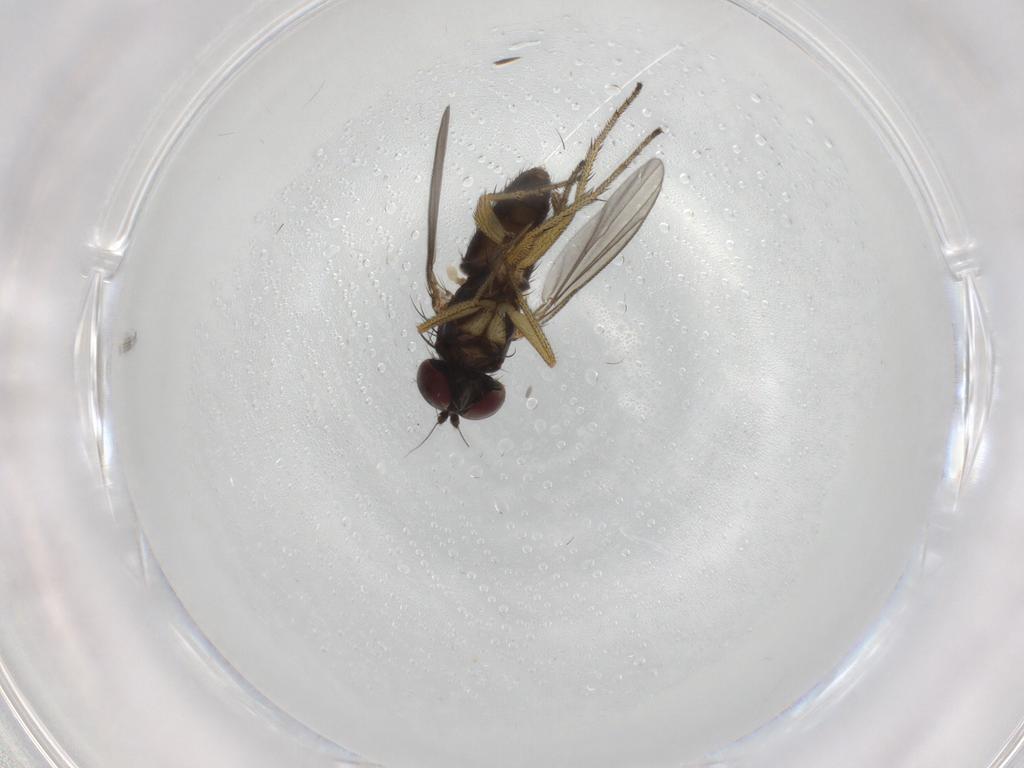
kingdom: Animalia
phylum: Arthropoda
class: Insecta
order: Diptera
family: Dolichopodidae
